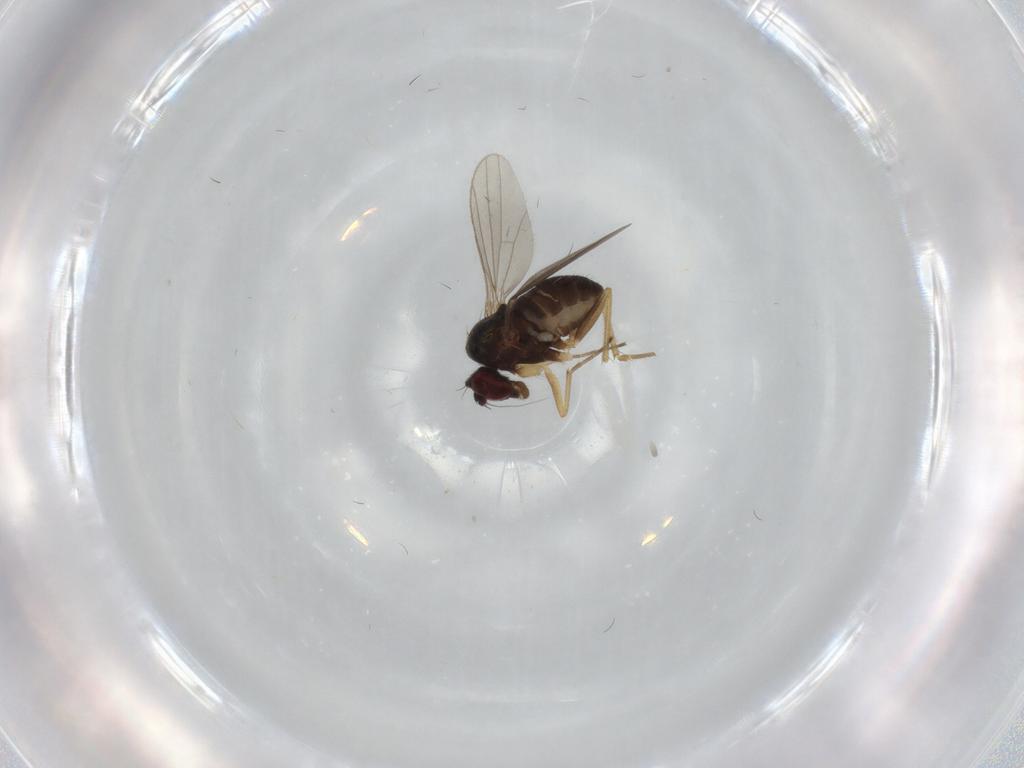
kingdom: Animalia
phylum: Arthropoda
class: Insecta
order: Diptera
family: Dolichopodidae
